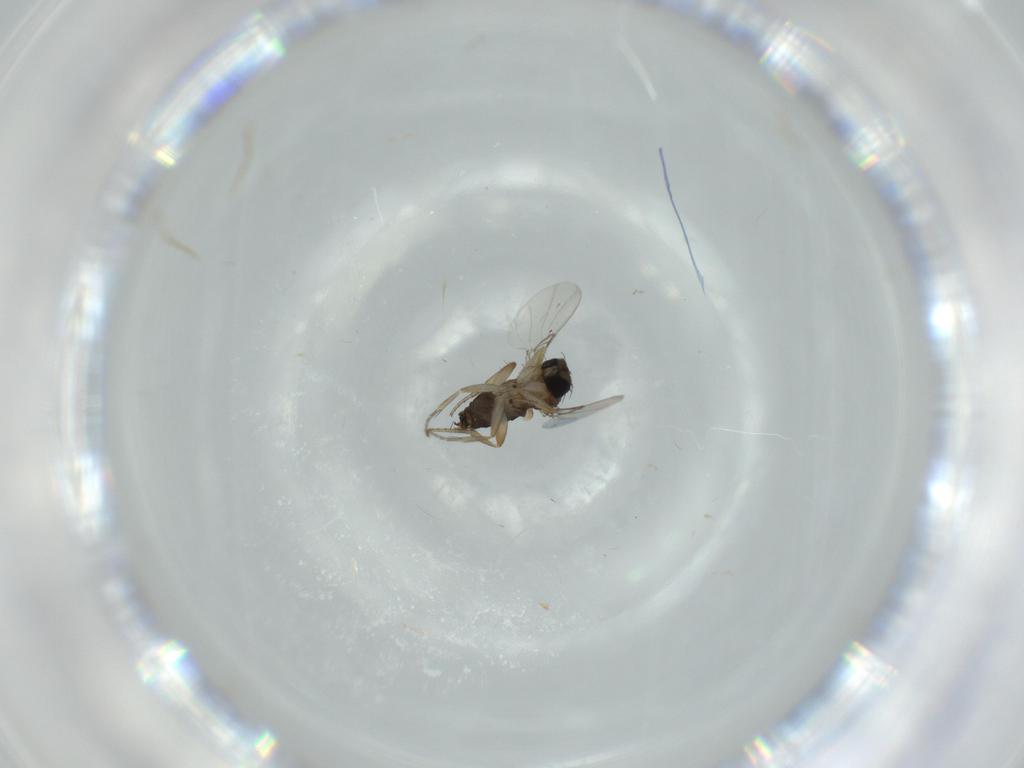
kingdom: Animalia
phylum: Arthropoda
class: Insecta
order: Diptera
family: Phoridae
